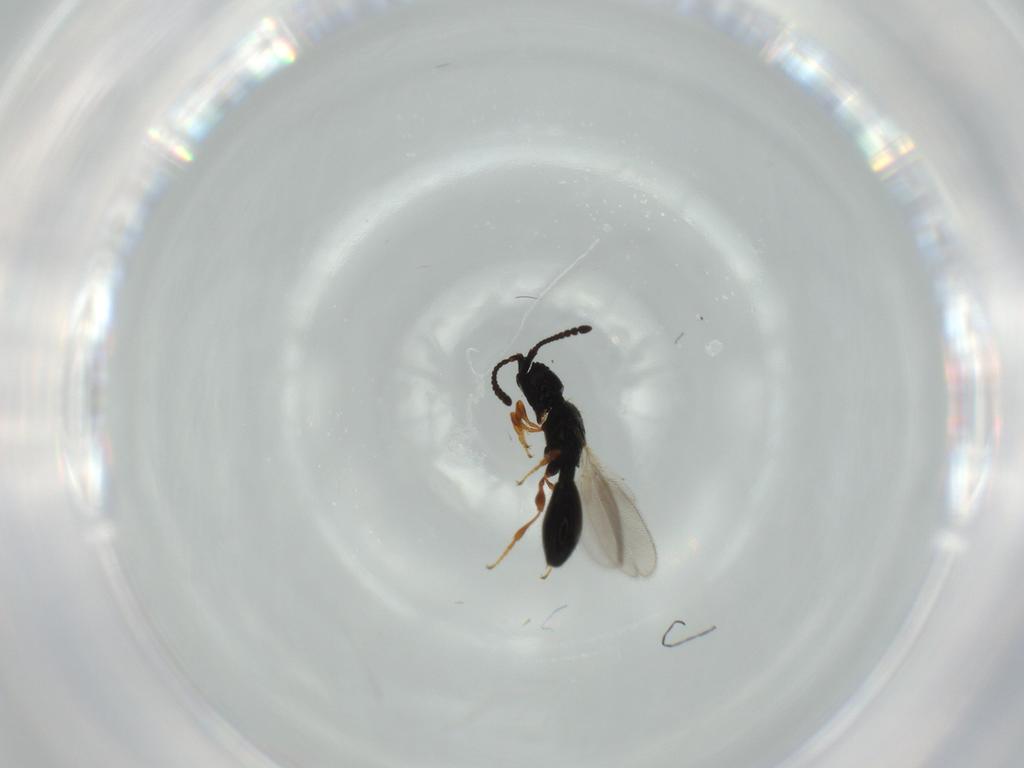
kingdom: Animalia
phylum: Arthropoda
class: Insecta
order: Hymenoptera
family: Diapriidae
